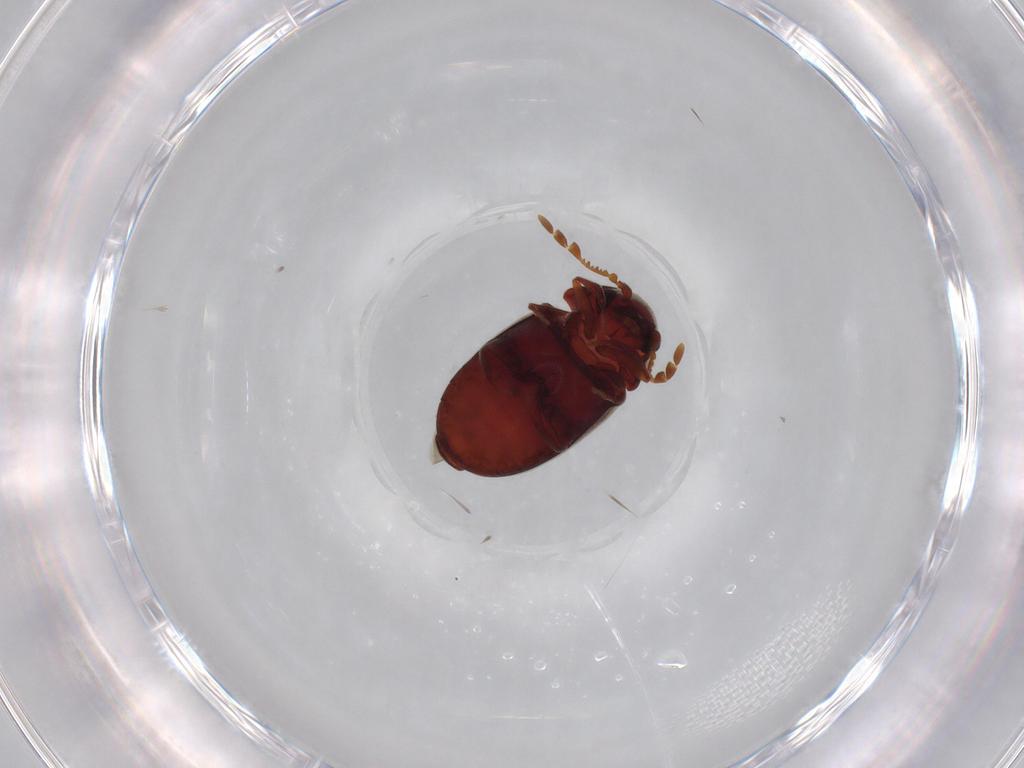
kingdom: Animalia
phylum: Arthropoda
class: Insecta
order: Coleoptera
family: Ptinidae
